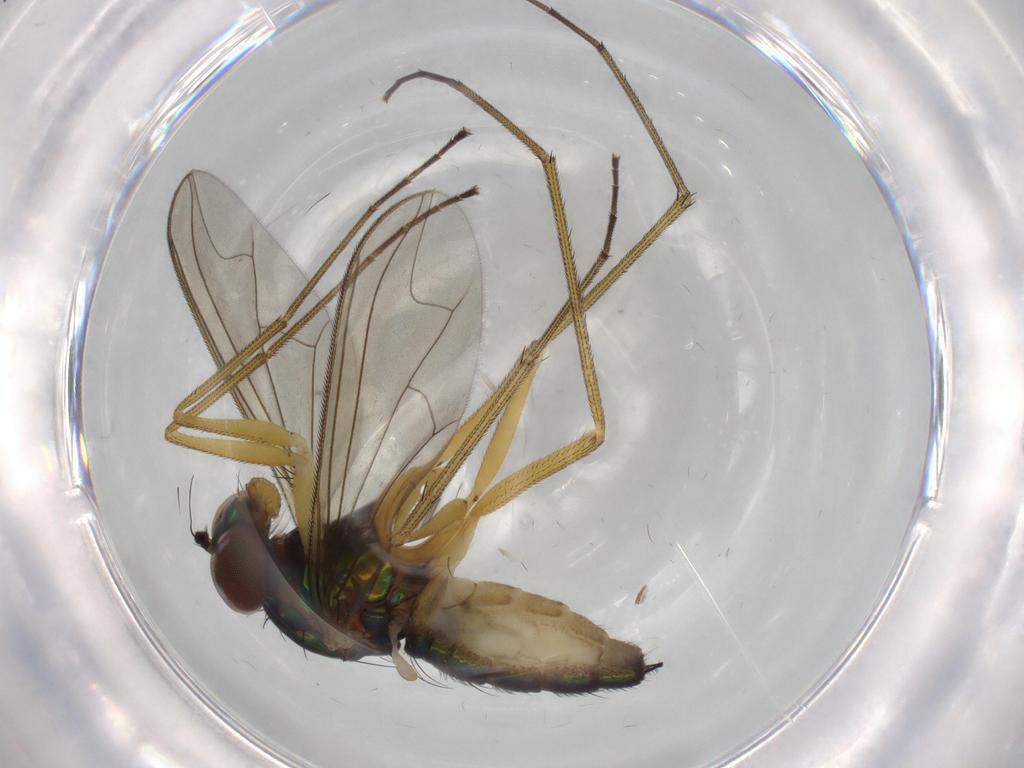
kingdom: Animalia
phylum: Arthropoda
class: Insecta
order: Diptera
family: Dolichopodidae
